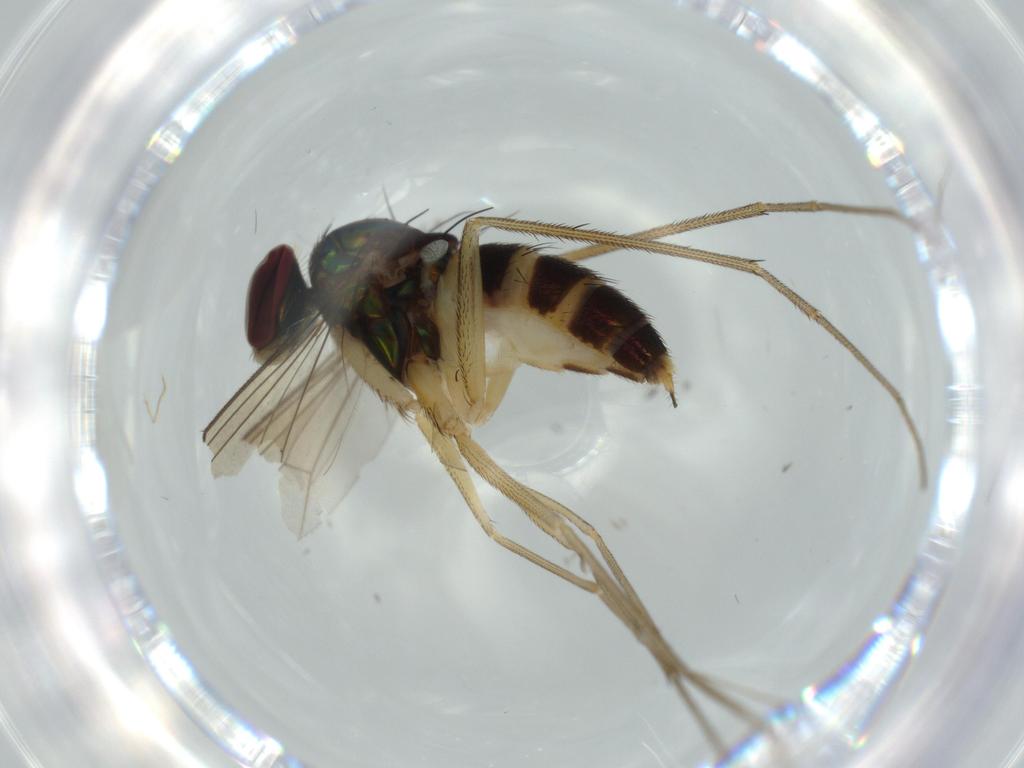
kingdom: Animalia
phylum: Arthropoda
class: Insecta
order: Diptera
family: Dolichopodidae
